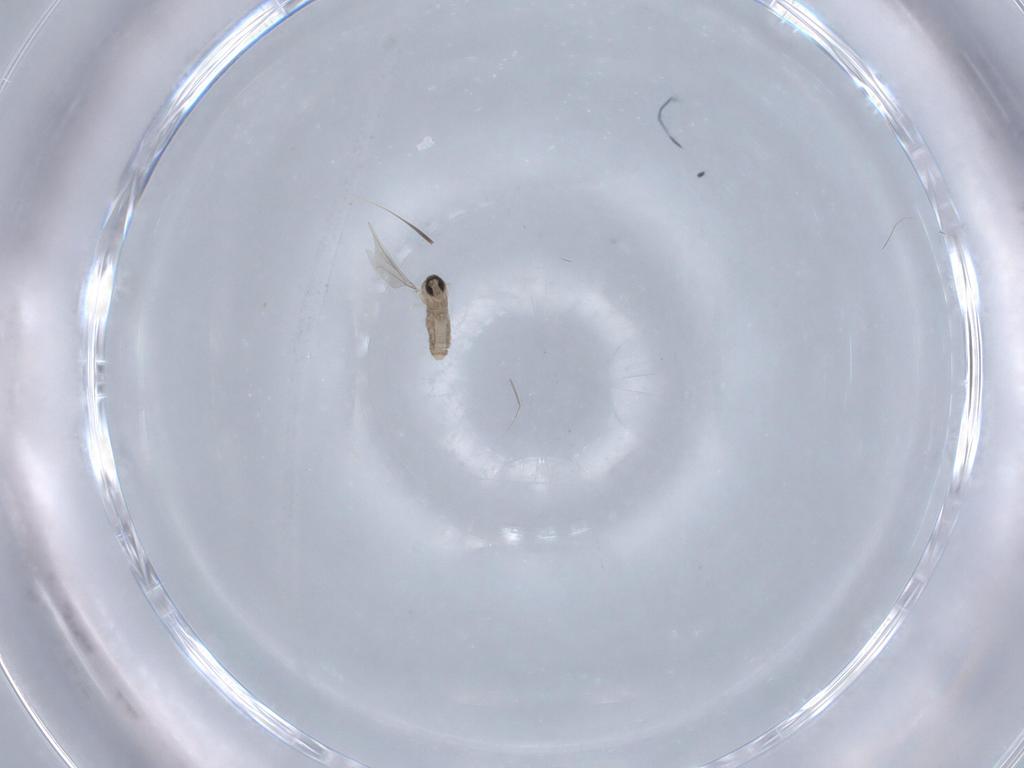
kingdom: Animalia
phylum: Arthropoda
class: Insecta
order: Diptera
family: Cecidomyiidae
